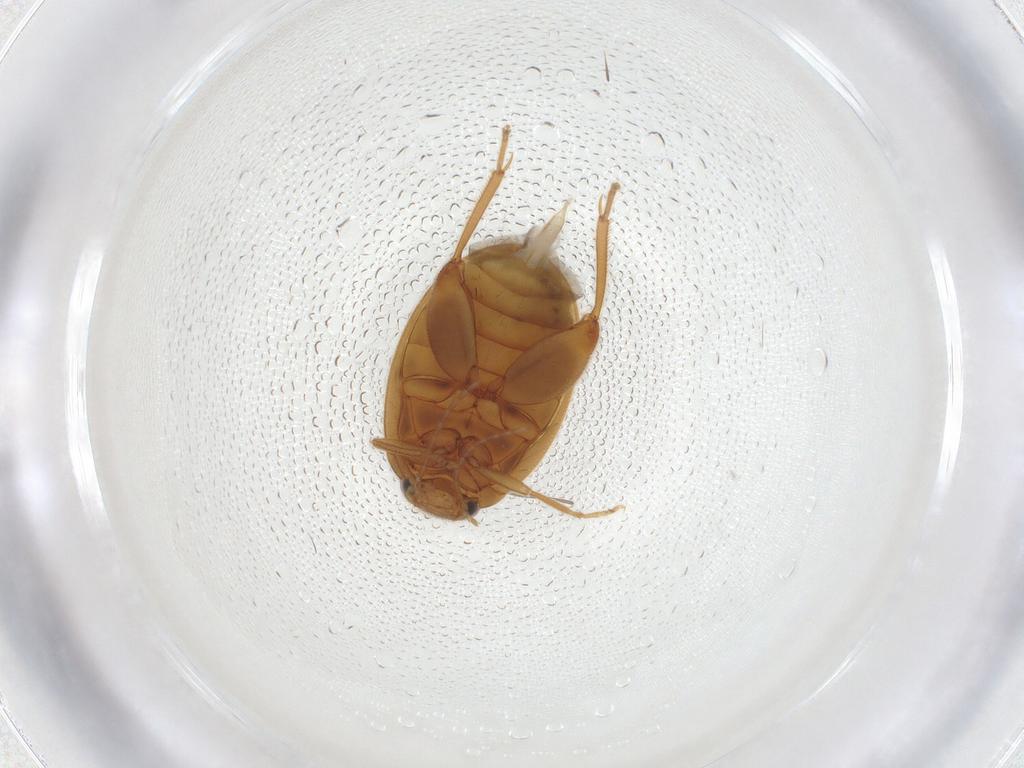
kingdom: Animalia
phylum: Arthropoda
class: Insecta
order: Coleoptera
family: Scirtidae
